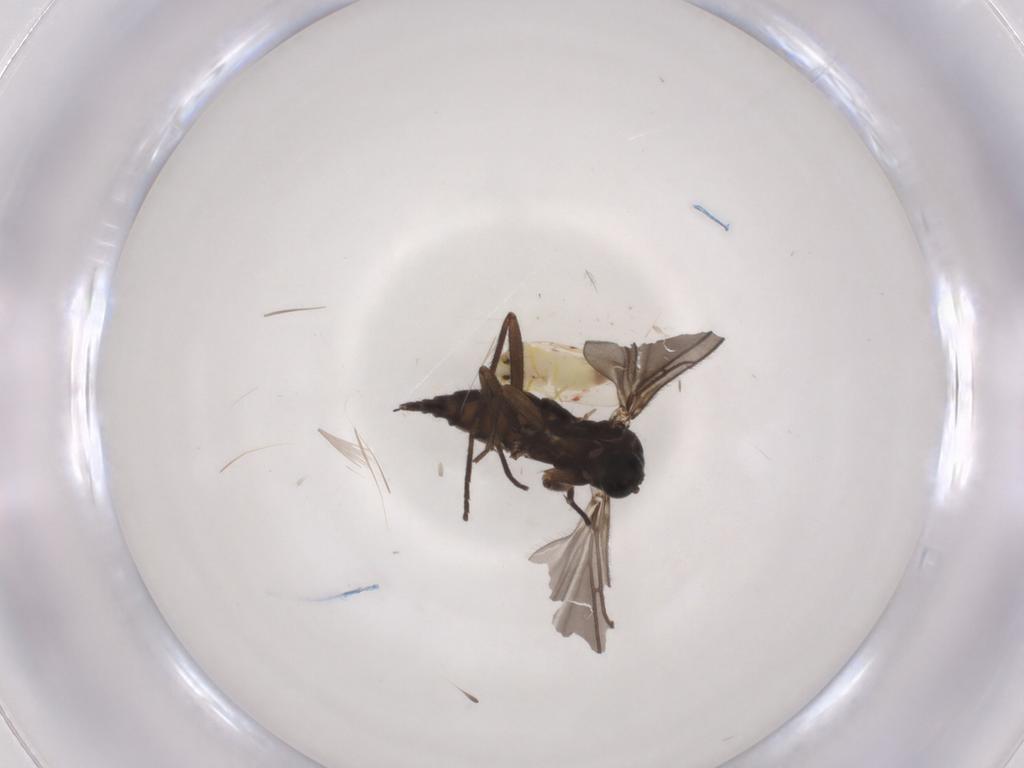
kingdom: Animalia
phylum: Arthropoda
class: Insecta
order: Hemiptera
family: Aleyrodidae
